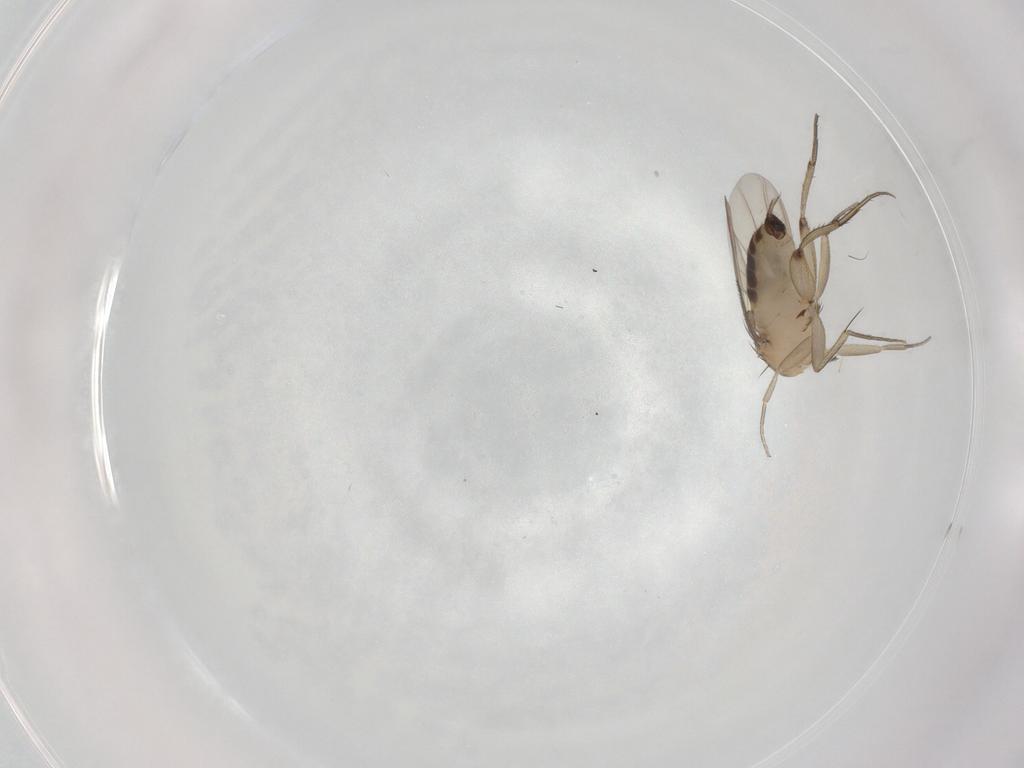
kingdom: Animalia
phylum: Arthropoda
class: Insecta
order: Diptera
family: Phoridae
